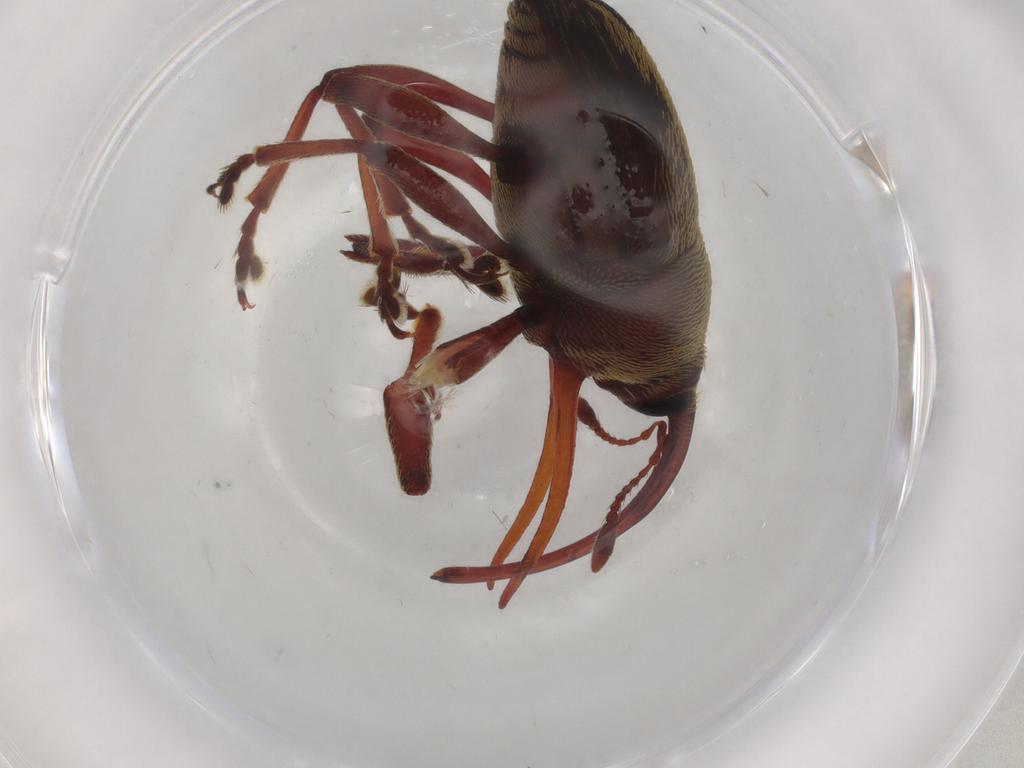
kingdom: Animalia
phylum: Arthropoda
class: Insecta
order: Coleoptera
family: Curculionidae
